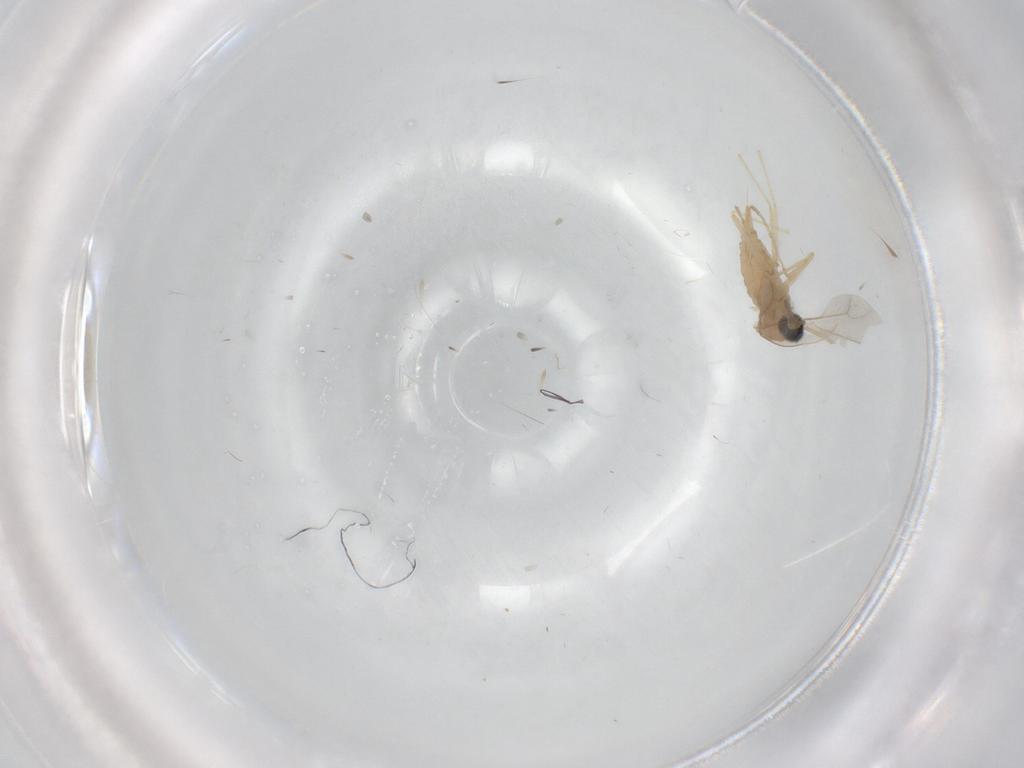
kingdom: Animalia
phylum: Arthropoda
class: Insecta
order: Diptera
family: Cecidomyiidae
